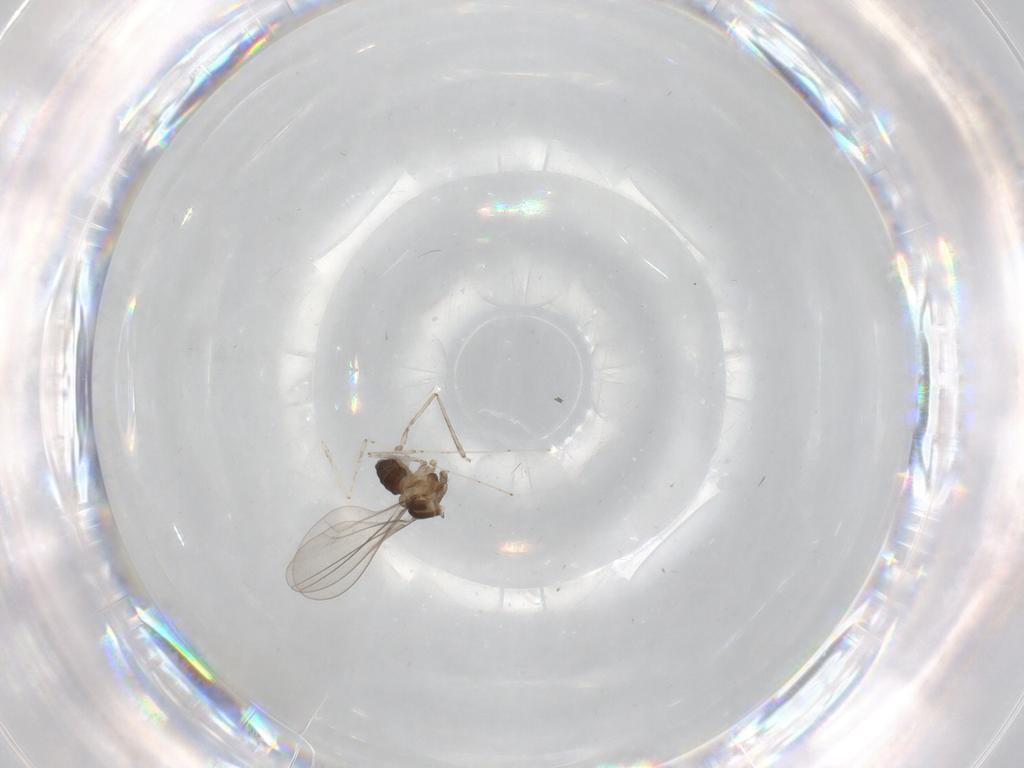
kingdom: Animalia
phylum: Arthropoda
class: Insecta
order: Diptera
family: Cecidomyiidae
